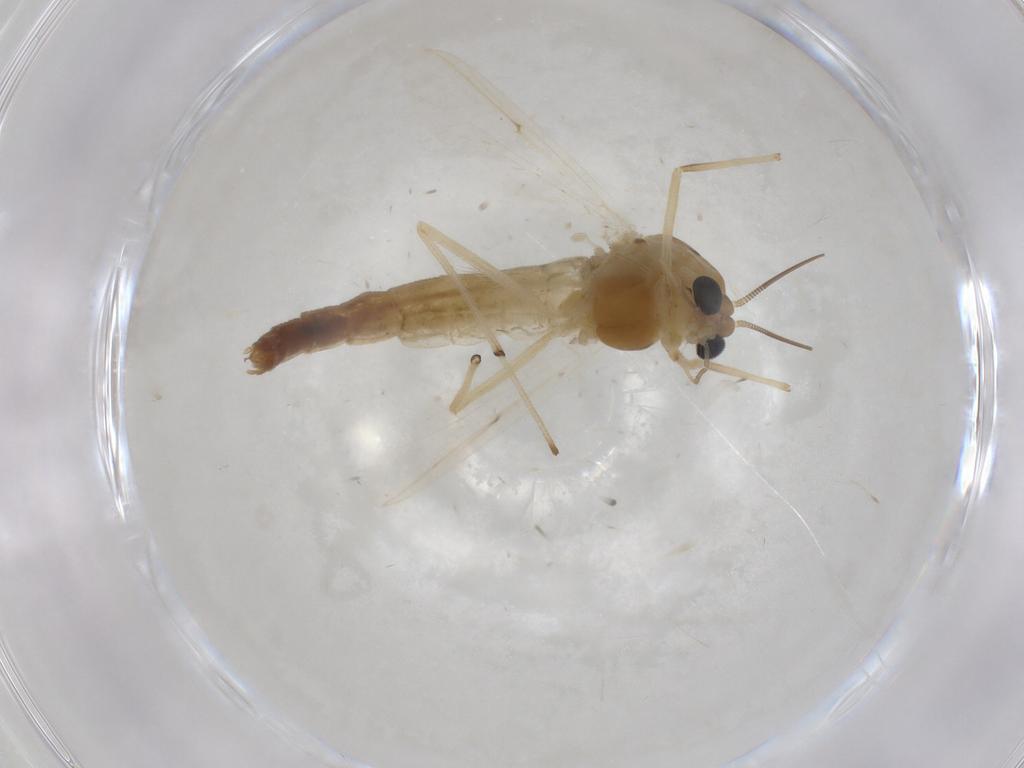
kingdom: Animalia
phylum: Arthropoda
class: Insecta
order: Diptera
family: Chironomidae
